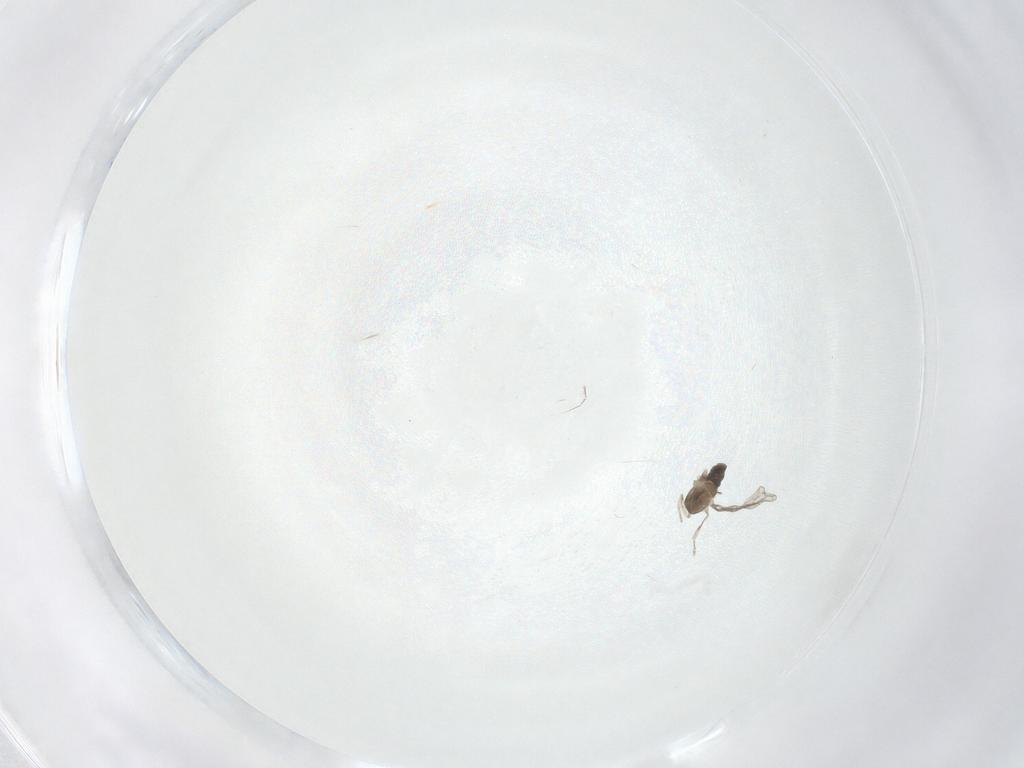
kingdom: Animalia
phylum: Arthropoda
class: Insecta
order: Diptera
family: Cecidomyiidae
